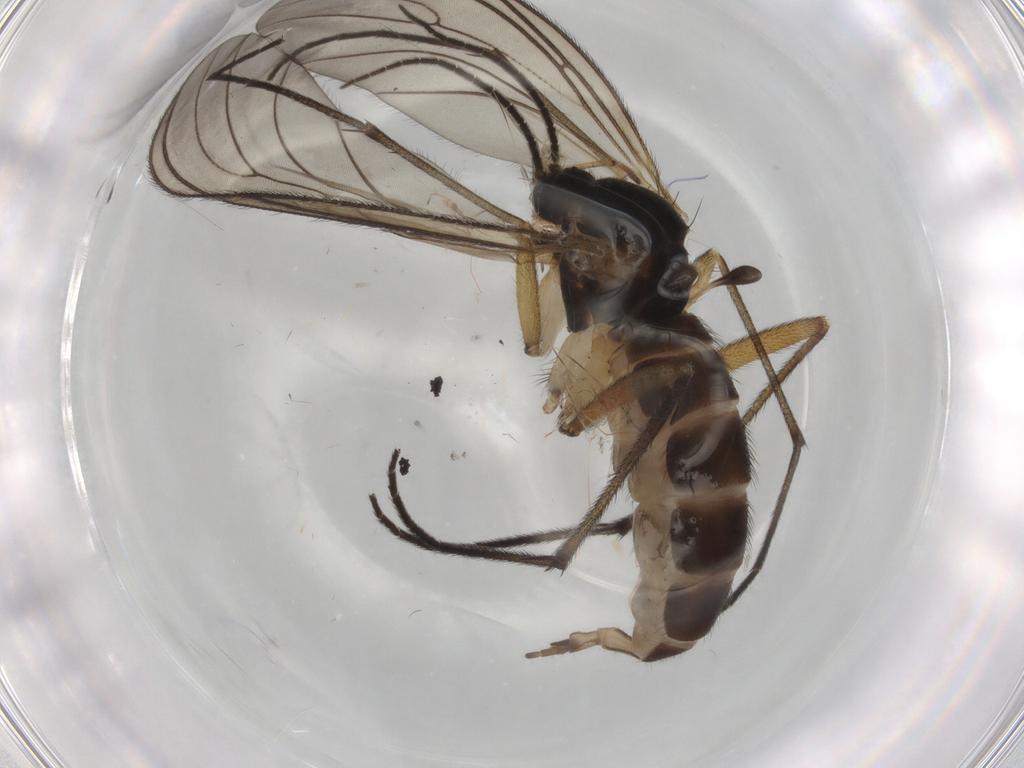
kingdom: Animalia
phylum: Arthropoda
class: Insecta
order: Diptera
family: Sciaridae
